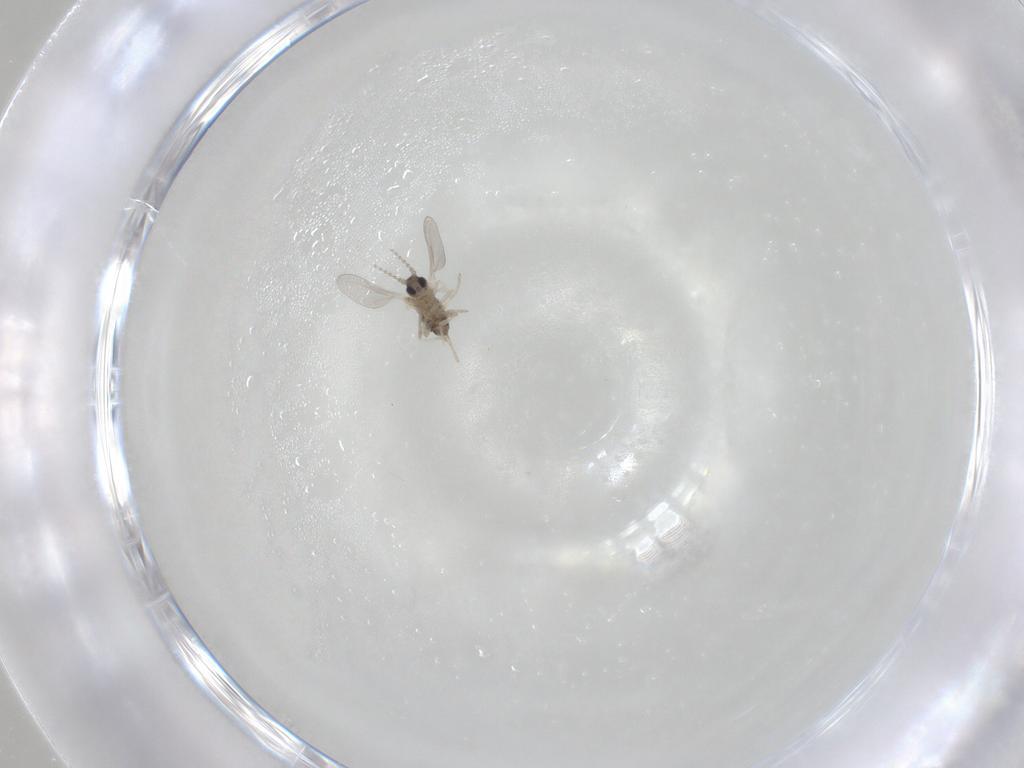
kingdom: Animalia
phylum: Arthropoda
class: Insecta
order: Diptera
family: Cecidomyiidae
